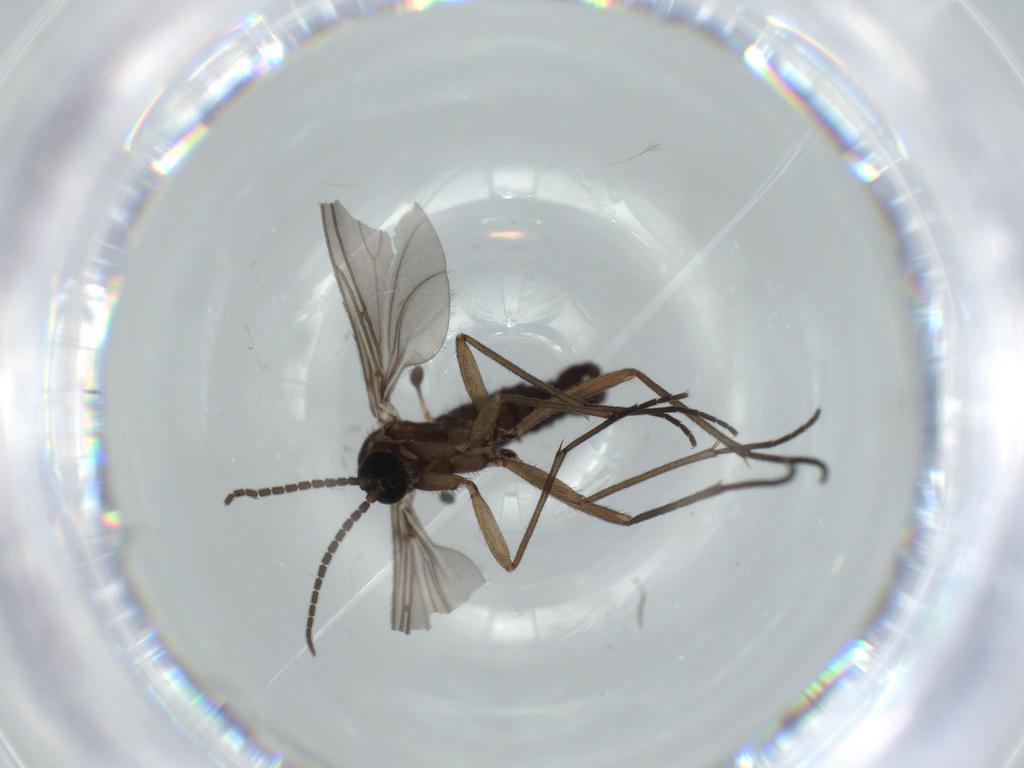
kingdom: Animalia
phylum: Arthropoda
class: Insecta
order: Diptera
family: Sciaridae
